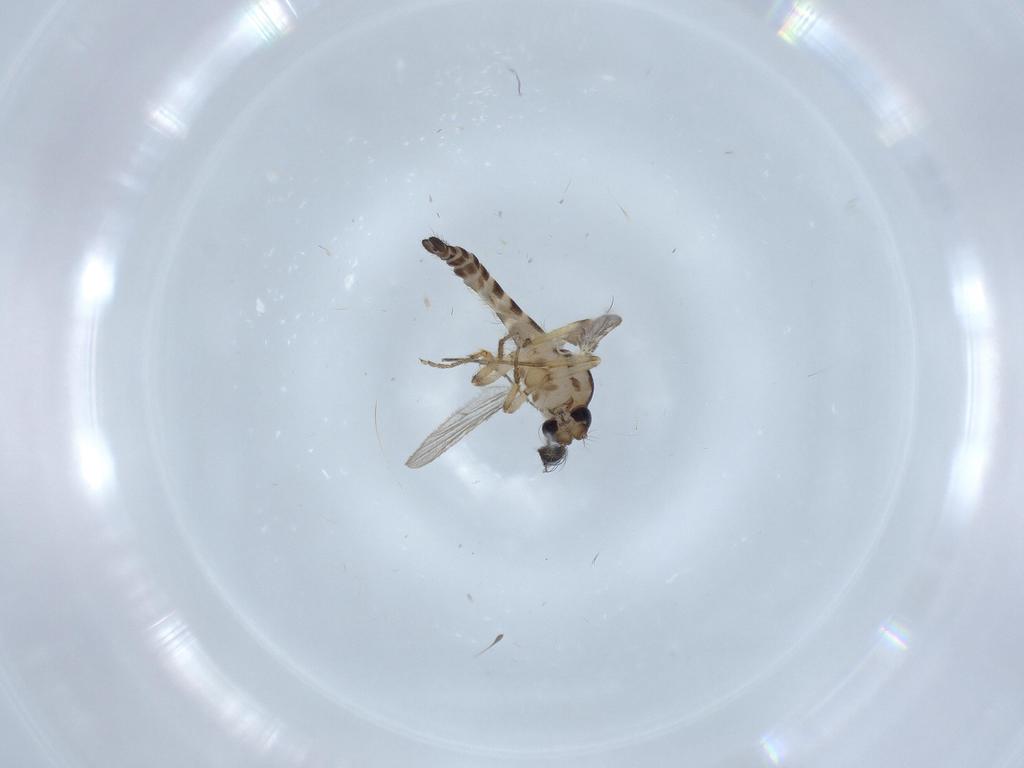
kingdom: Animalia
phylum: Arthropoda
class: Insecta
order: Diptera
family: Ceratopogonidae
